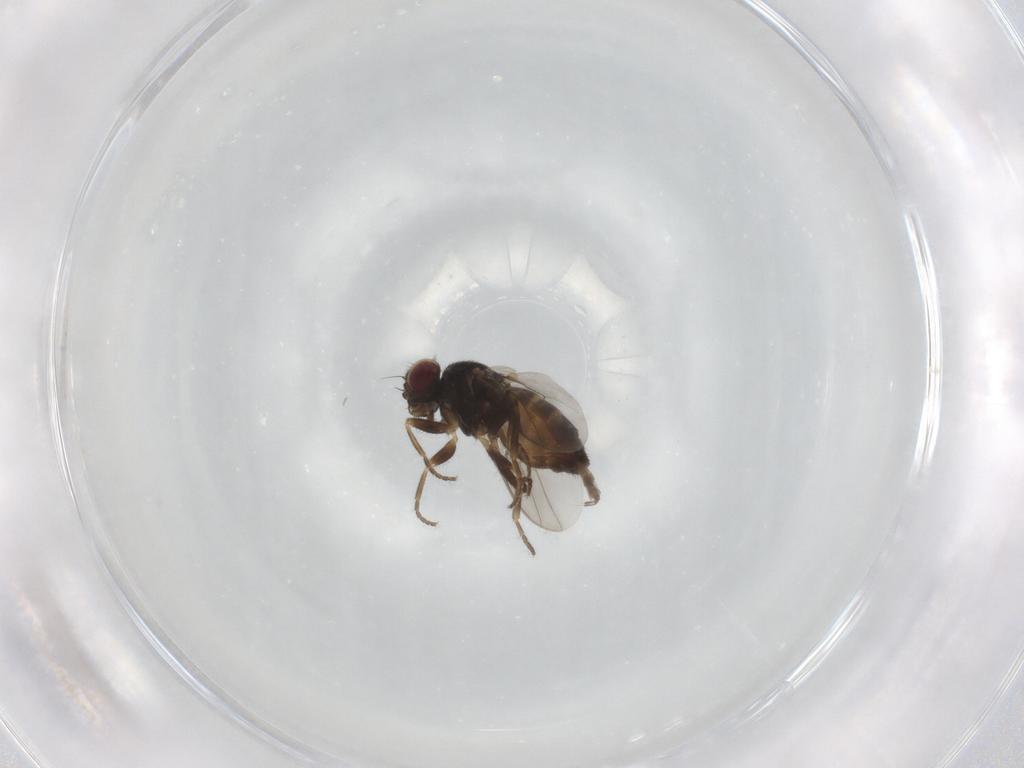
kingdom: Animalia
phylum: Arthropoda
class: Insecta
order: Diptera
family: Chloropidae
